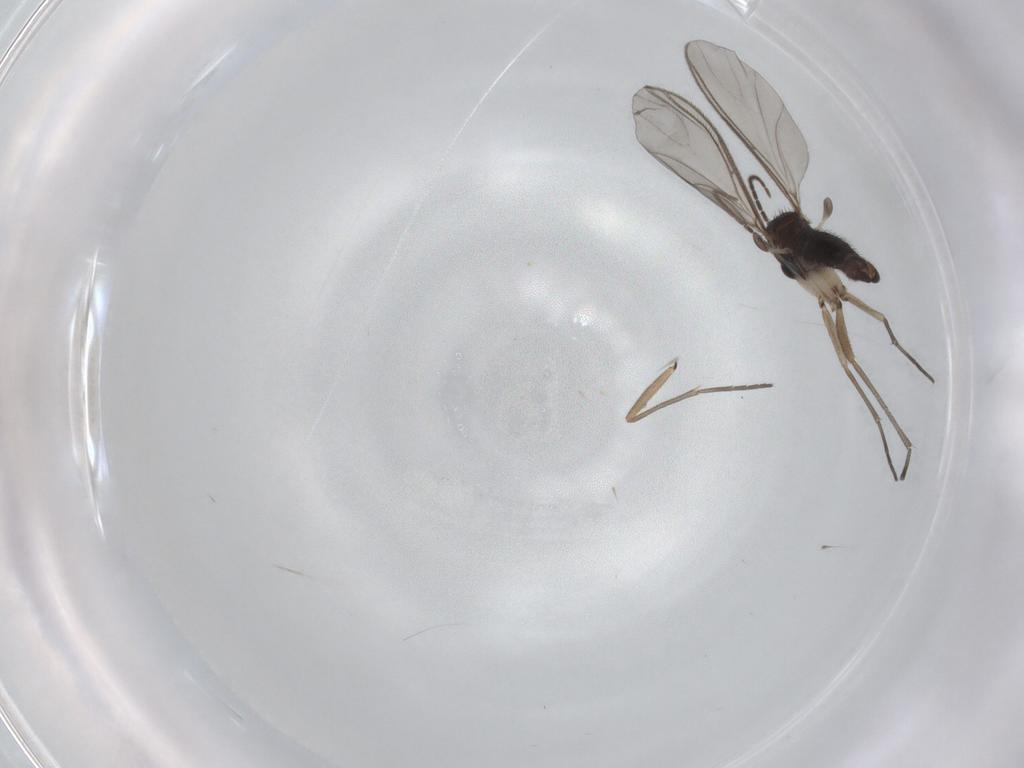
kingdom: Animalia
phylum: Arthropoda
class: Insecta
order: Diptera
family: Sciaridae
